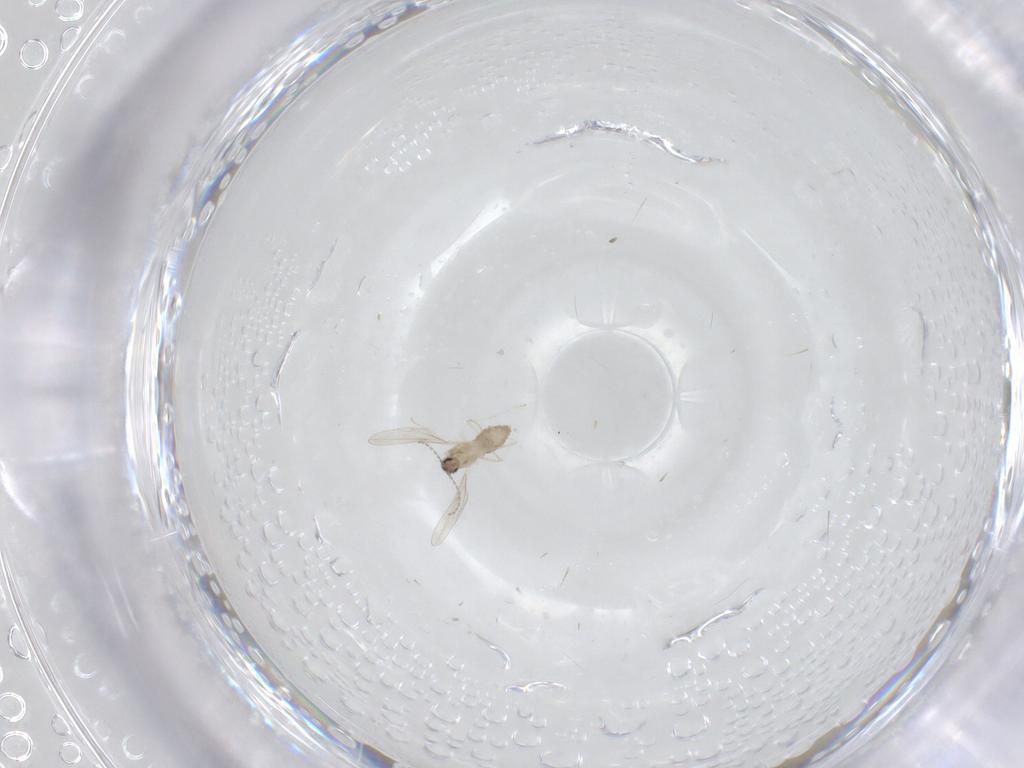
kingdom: Animalia
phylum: Arthropoda
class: Insecta
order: Diptera
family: Cecidomyiidae
